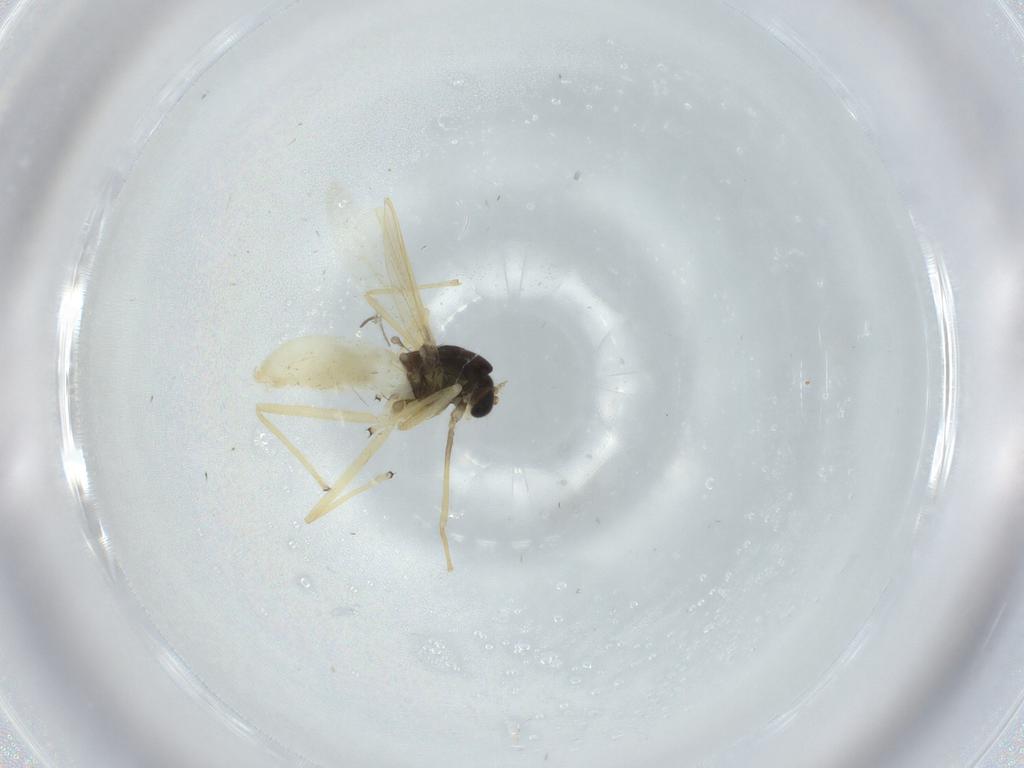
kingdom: Animalia
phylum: Arthropoda
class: Insecta
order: Diptera
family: Chironomidae
